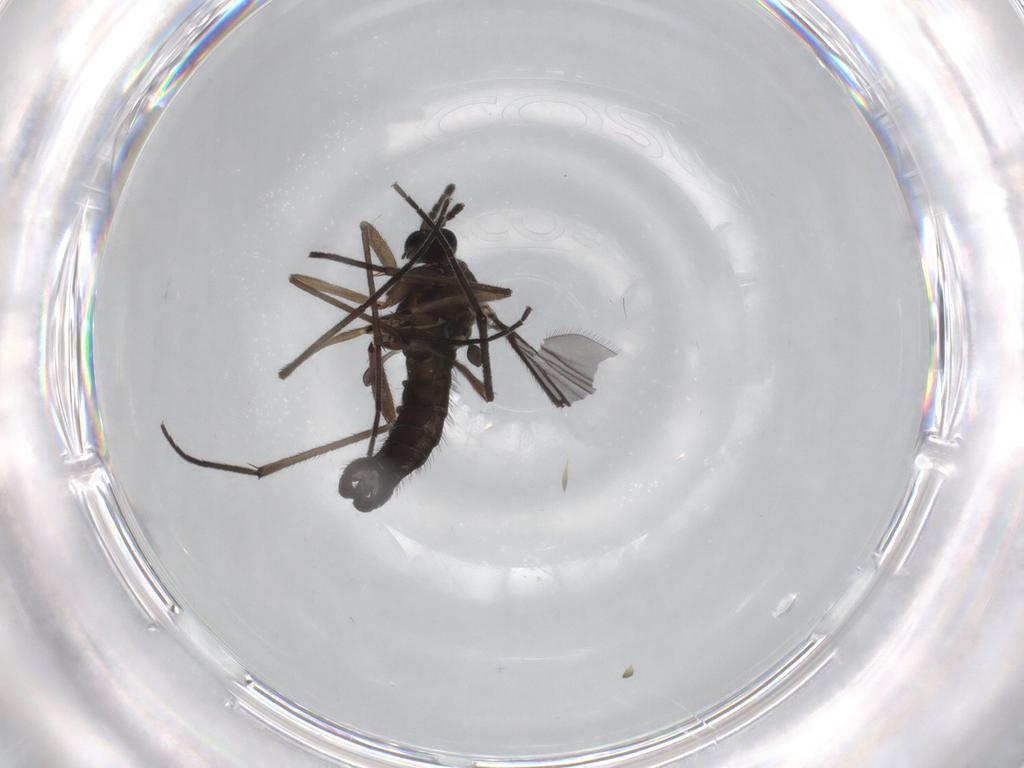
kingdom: Animalia
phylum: Arthropoda
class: Insecta
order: Diptera
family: Sciaridae
